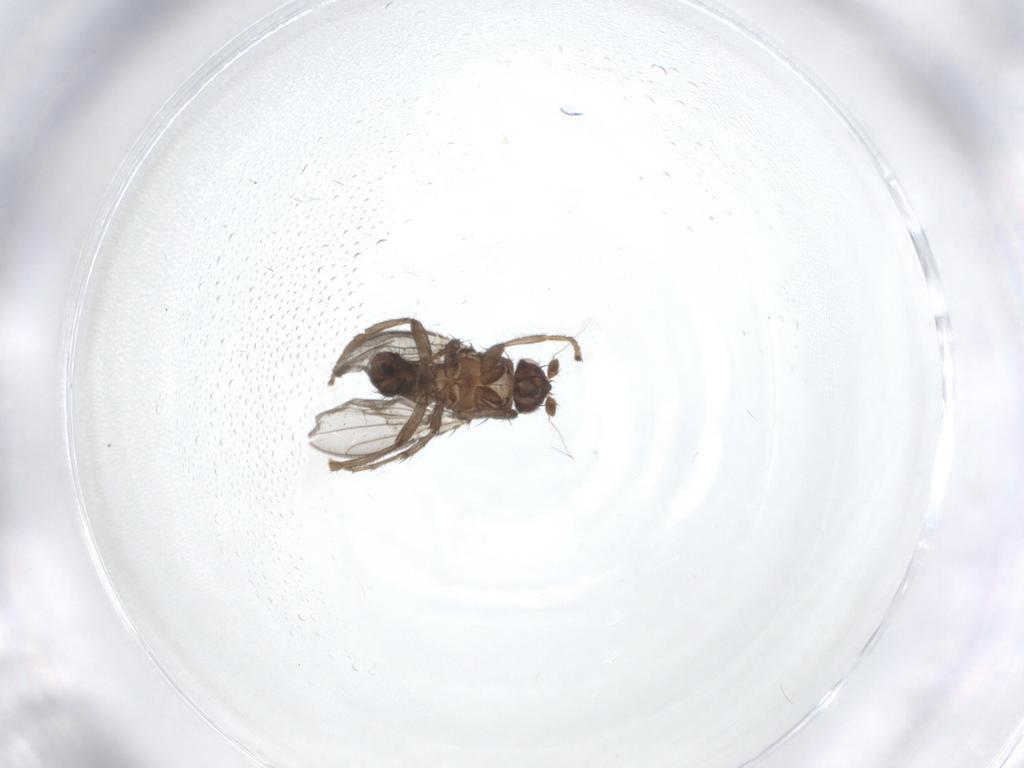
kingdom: Animalia
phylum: Arthropoda
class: Insecta
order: Diptera
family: Sphaeroceridae
